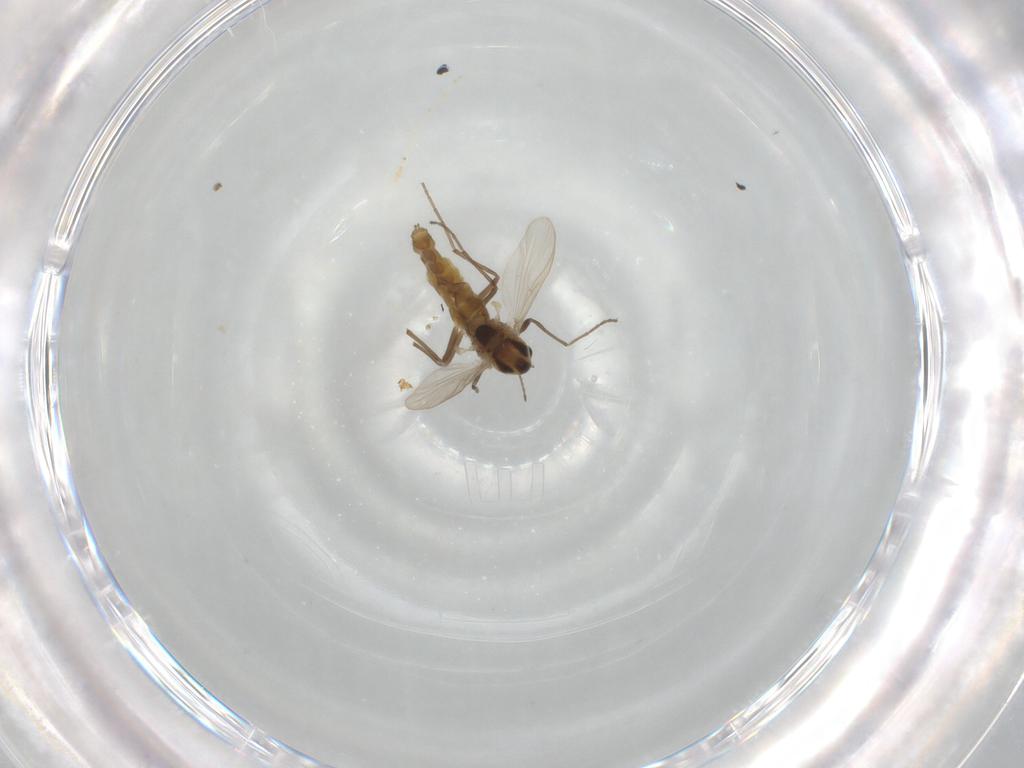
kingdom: Animalia
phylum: Arthropoda
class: Insecta
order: Diptera
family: Chironomidae
